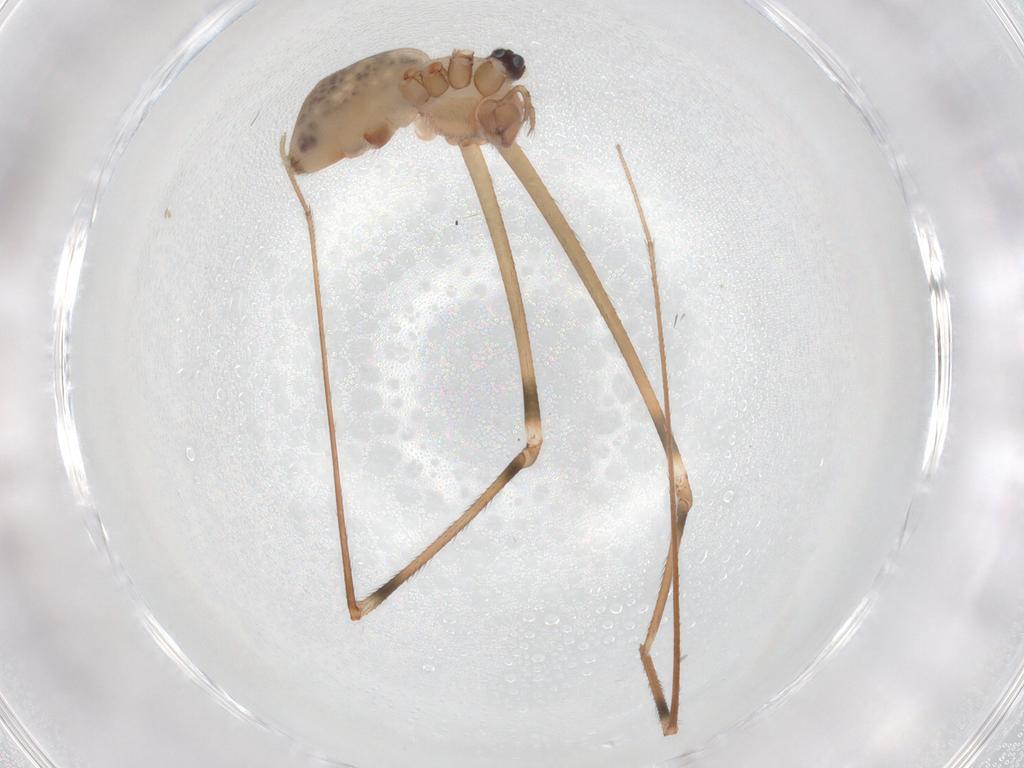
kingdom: Animalia
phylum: Arthropoda
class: Arachnida
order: Araneae
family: Pholcidae
